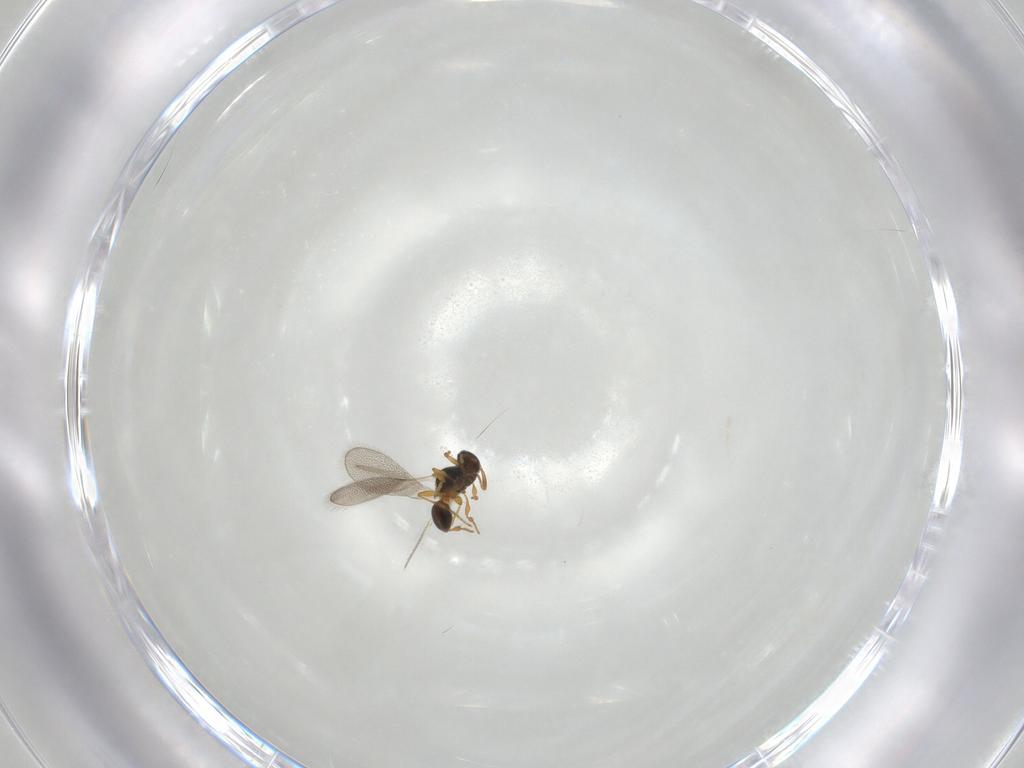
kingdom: Animalia
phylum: Arthropoda
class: Insecta
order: Hymenoptera
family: Platygastridae
